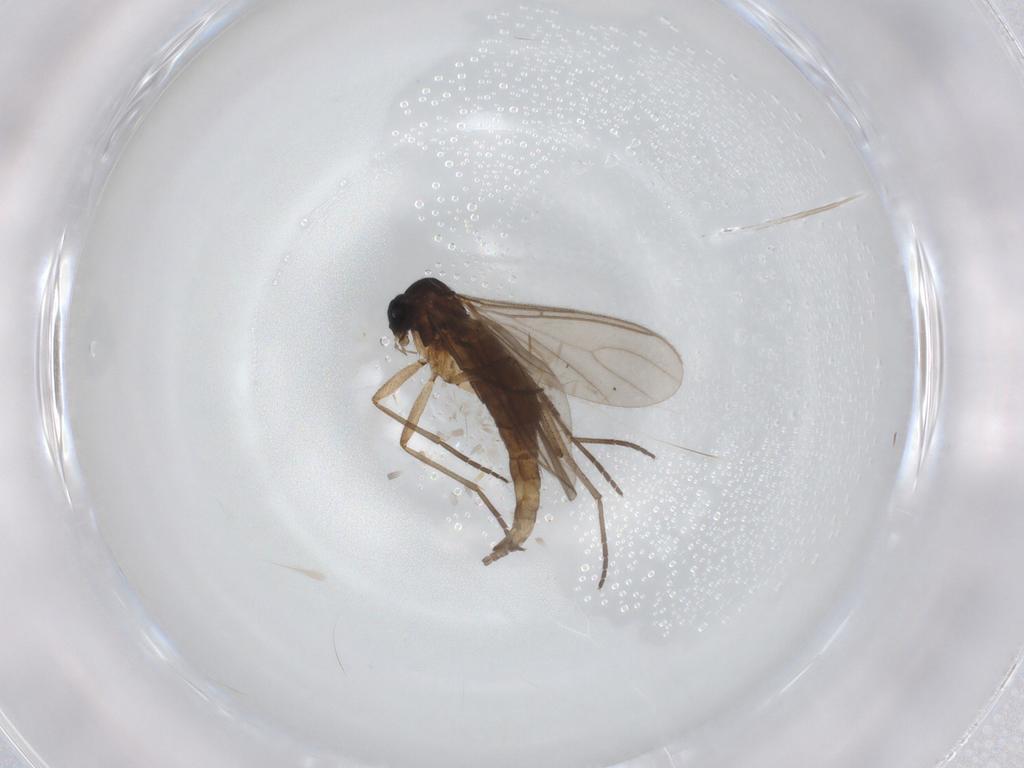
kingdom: Animalia
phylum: Arthropoda
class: Insecta
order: Diptera
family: Sciaridae
